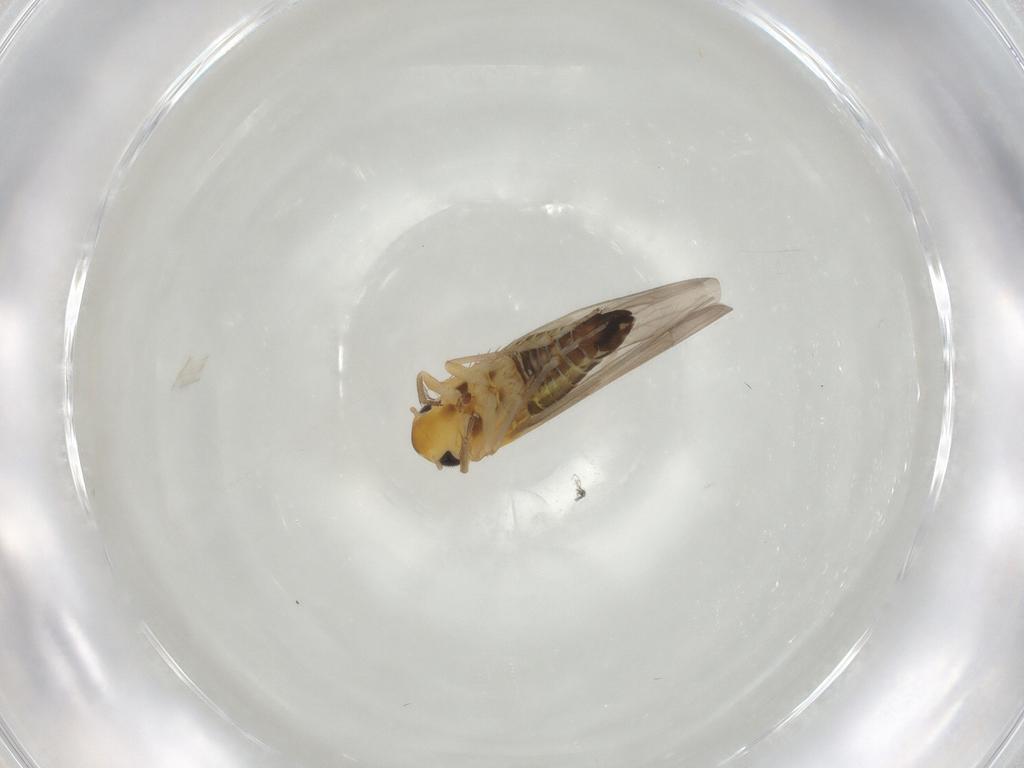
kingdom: Animalia
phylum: Arthropoda
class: Insecta
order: Hemiptera
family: Cicadellidae
